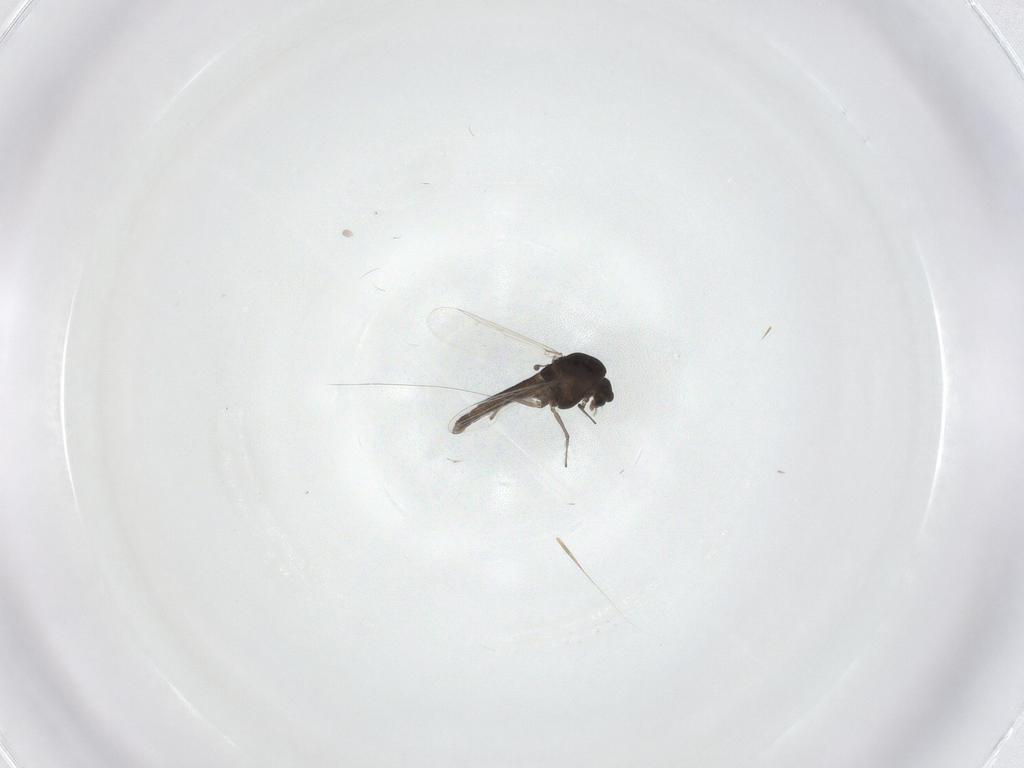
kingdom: Animalia
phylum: Arthropoda
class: Insecta
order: Diptera
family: Chironomidae
